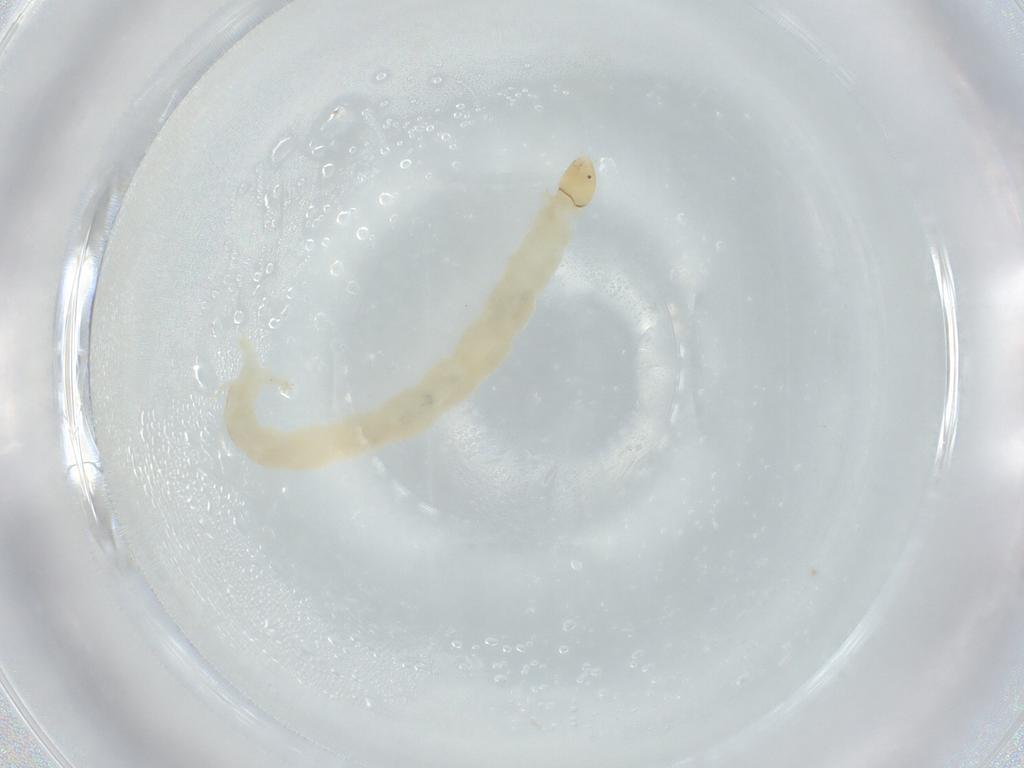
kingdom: Animalia
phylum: Arthropoda
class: Insecta
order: Diptera
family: Chironomidae
